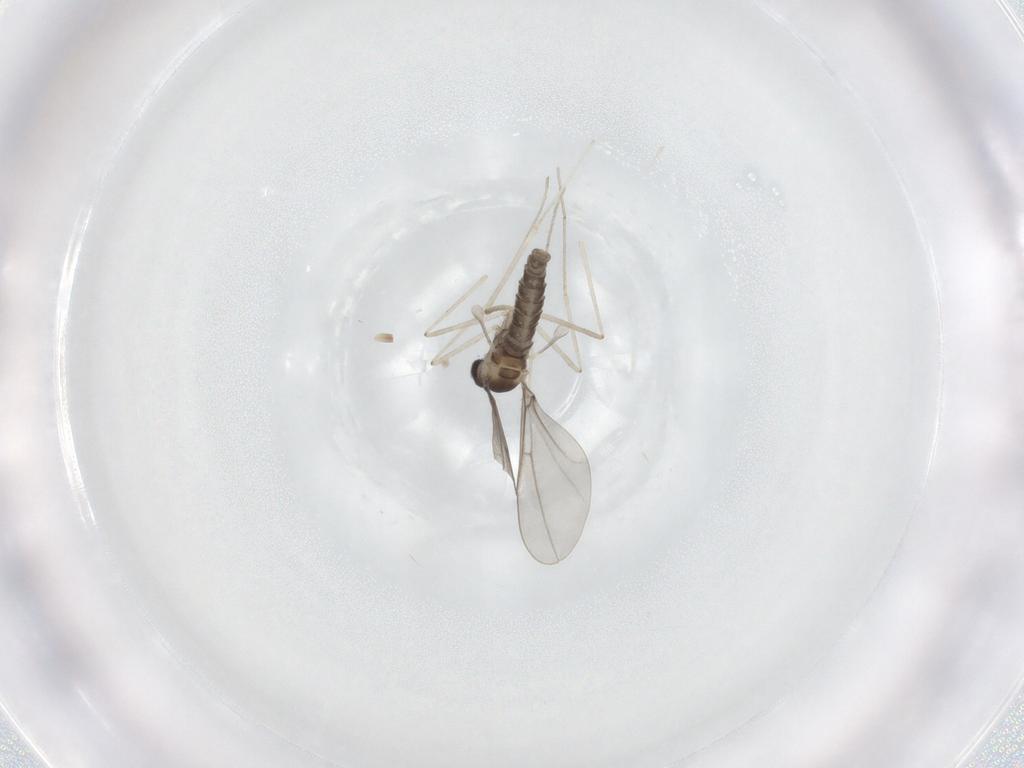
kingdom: Animalia
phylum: Arthropoda
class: Insecta
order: Diptera
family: Cecidomyiidae
